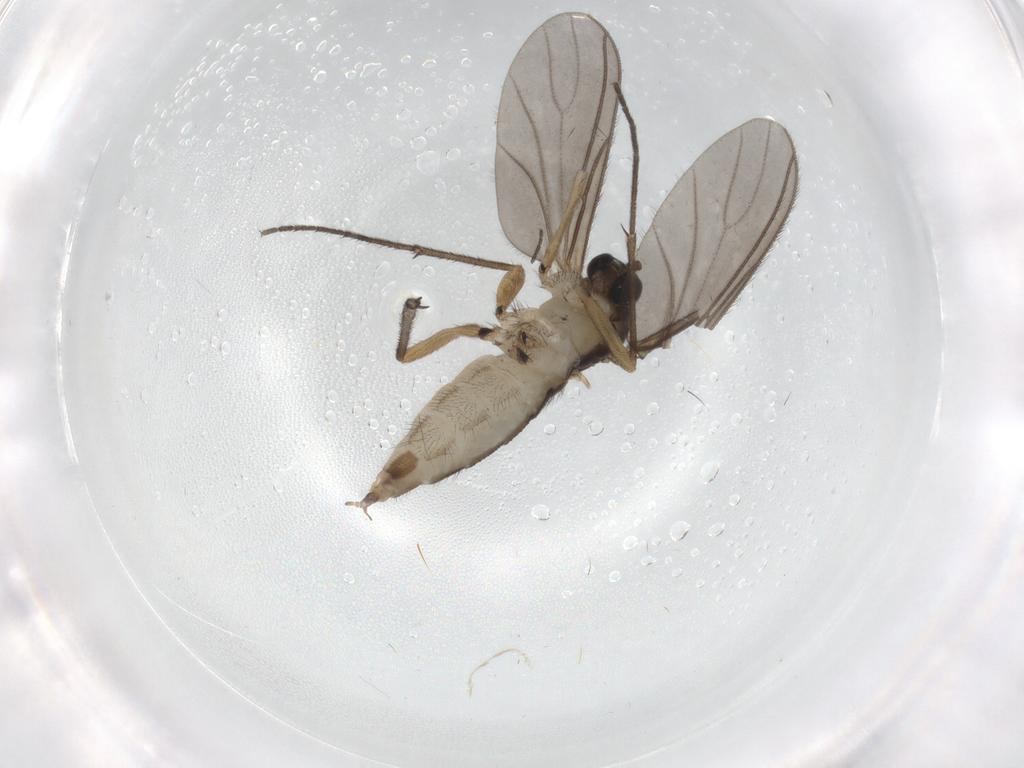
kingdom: Animalia
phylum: Arthropoda
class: Insecta
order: Diptera
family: Sciaridae
